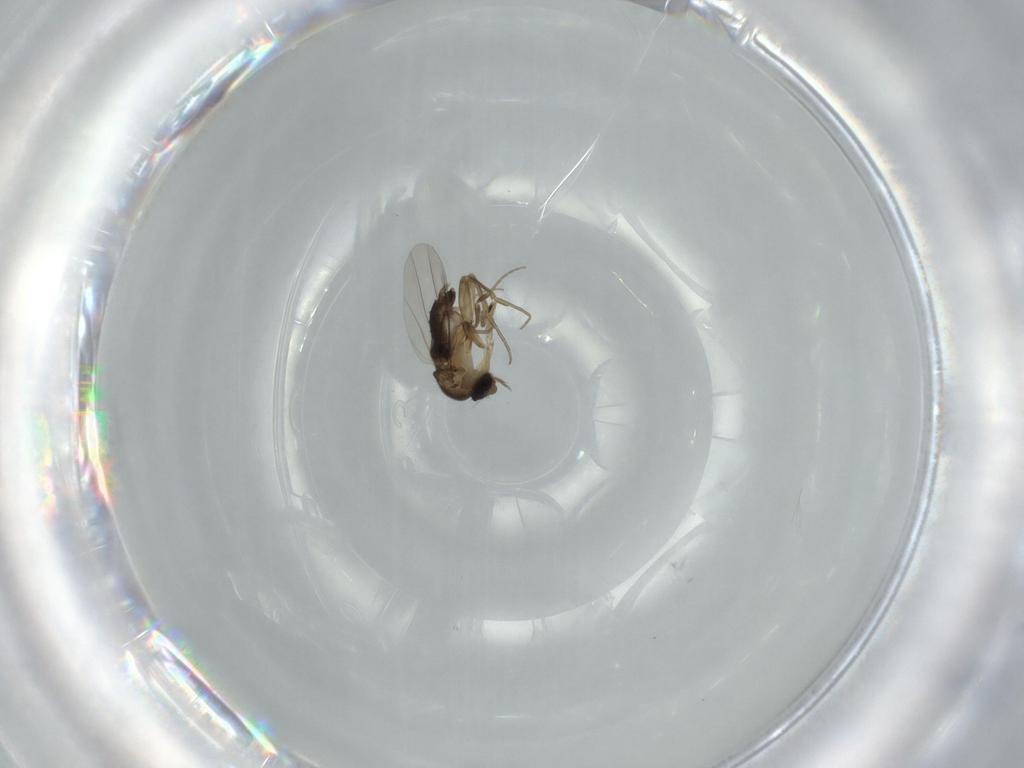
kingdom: Animalia
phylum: Arthropoda
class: Insecta
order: Diptera
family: Phoridae
